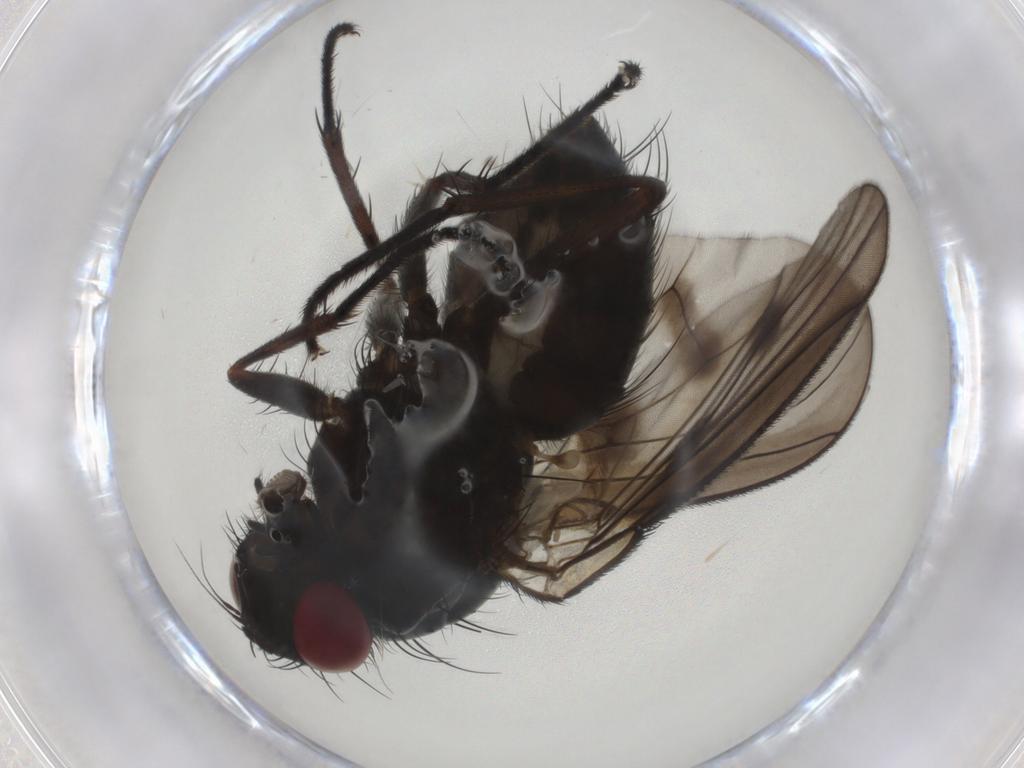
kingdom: Animalia
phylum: Arthropoda
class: Insecta
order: Diptera
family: Muscidae
